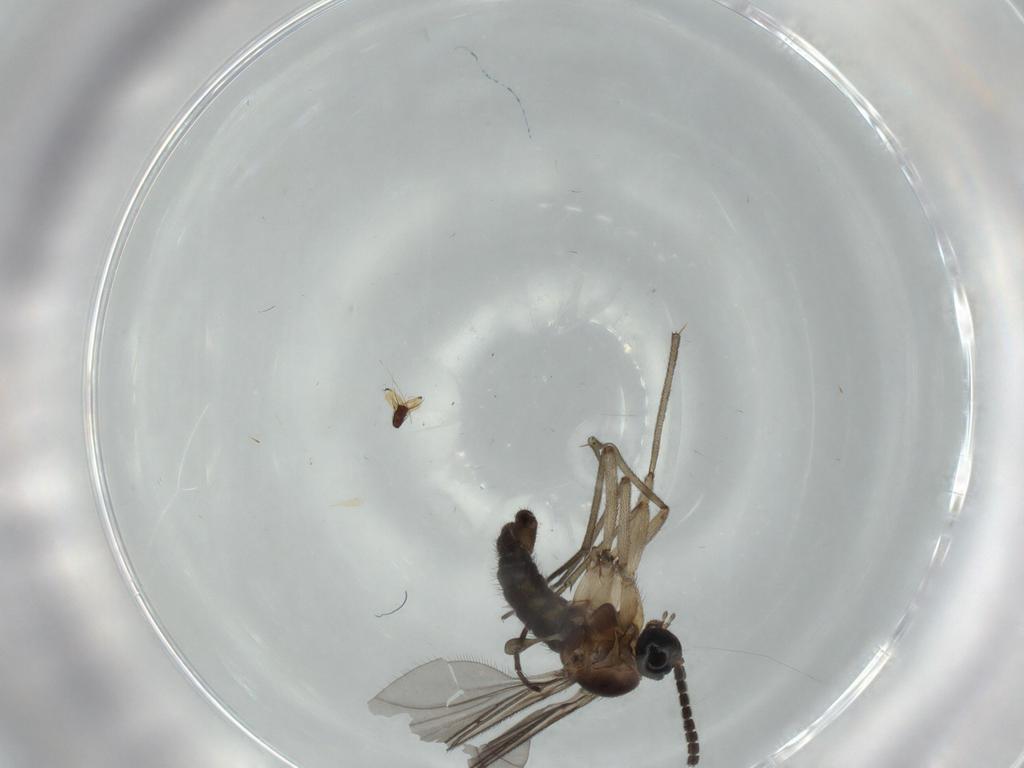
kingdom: Animalia
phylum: Arthropoda
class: Insecta
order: Diptera
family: Sciaridae
